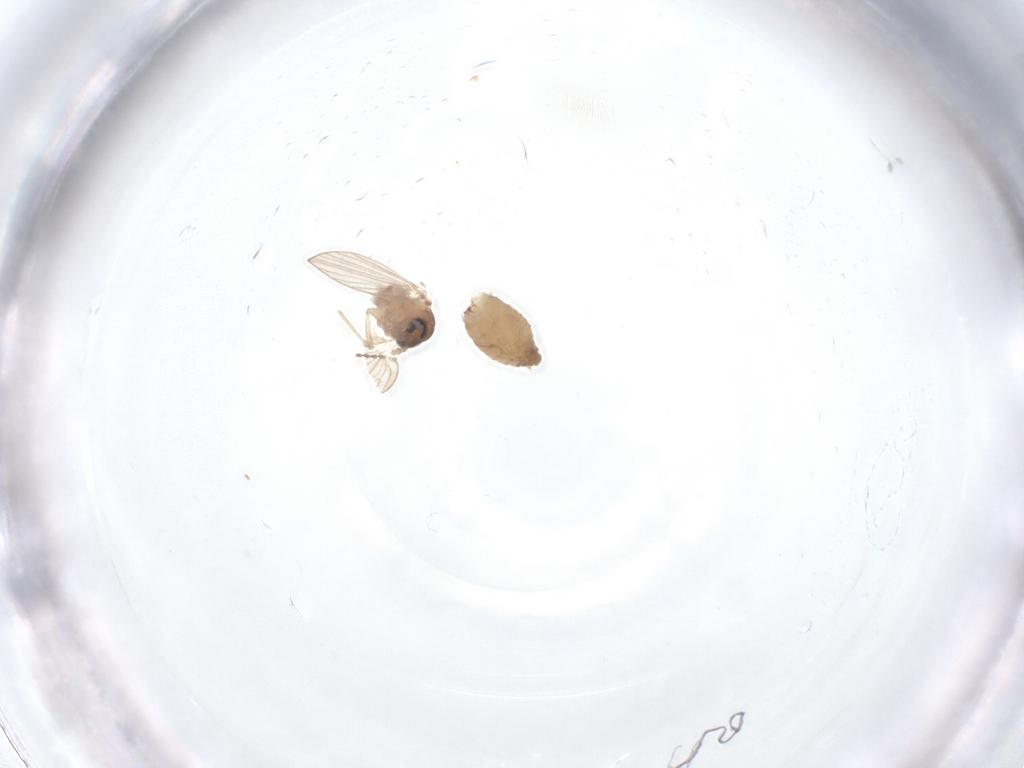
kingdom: Animalia
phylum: Arthropoda
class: Insecta
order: Diptera
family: Psychodidae
